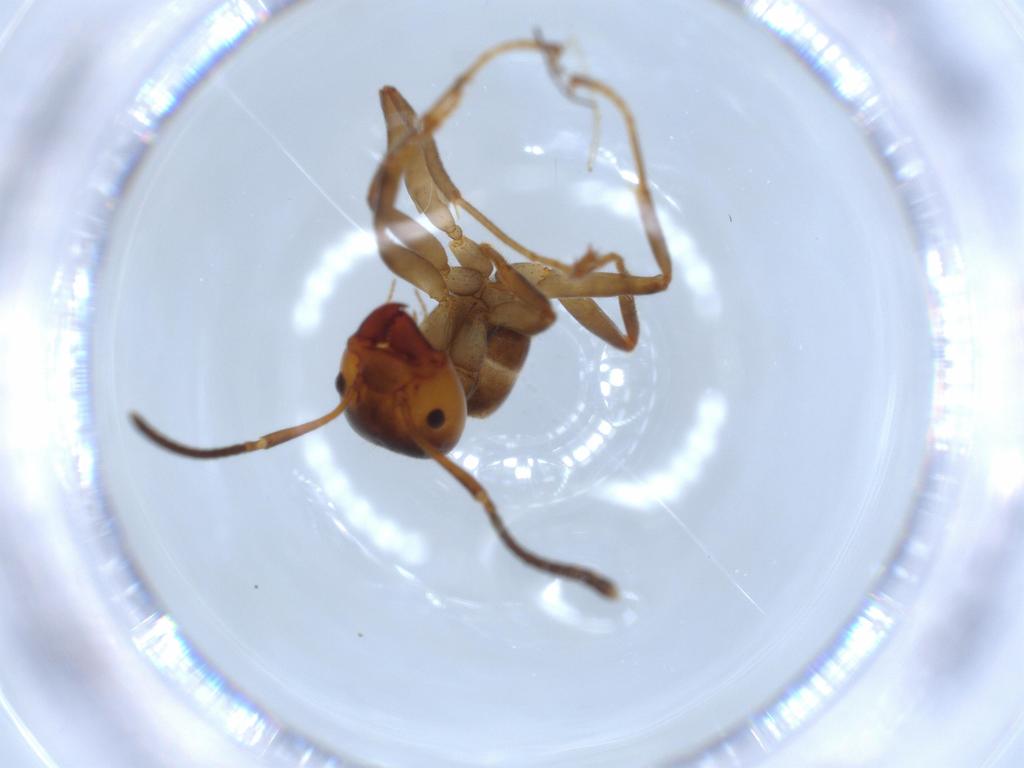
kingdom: Animalia
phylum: Arthropoda
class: Insecta
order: Hymenoptera
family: Formicidae
